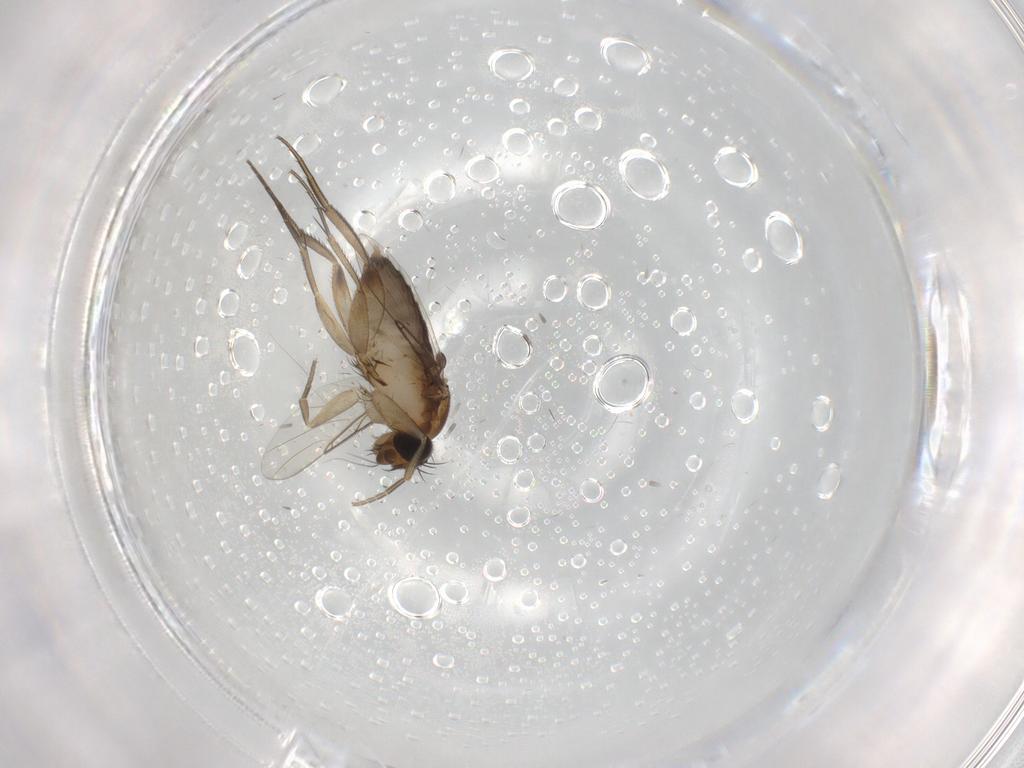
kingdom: Animalia
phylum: Arthropoda
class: Insecta
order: Diptera
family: Phoridae
